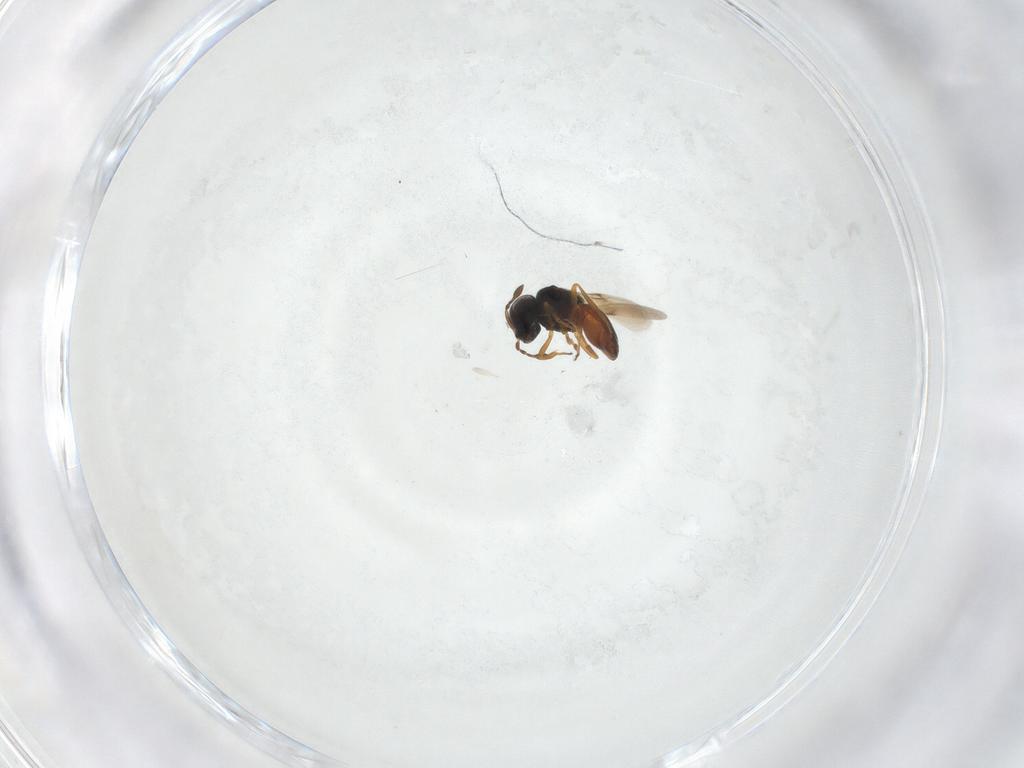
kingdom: Animalia
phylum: Arthropoda
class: Insecta
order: Hymenoptera
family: Scelionidae
